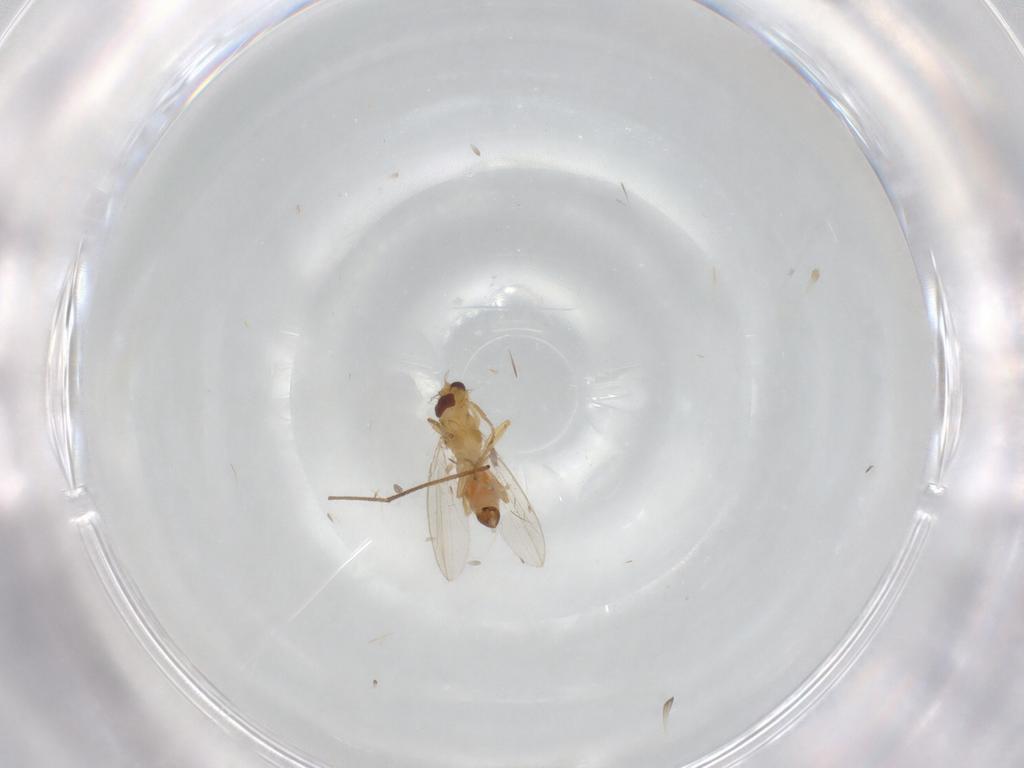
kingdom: Animalia
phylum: Arthropoda
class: Insecta
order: Diptera
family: Periscelididae
